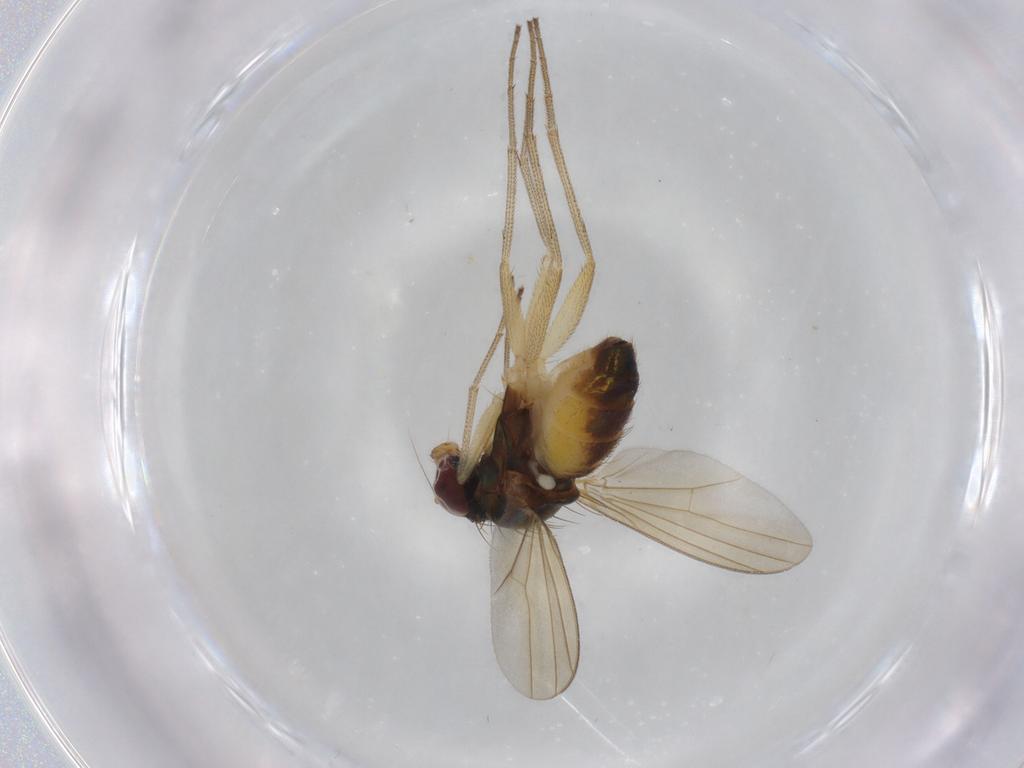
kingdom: Animalia
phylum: Arthropoda
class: Insecta
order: Diptera
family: Dolichopodidae
